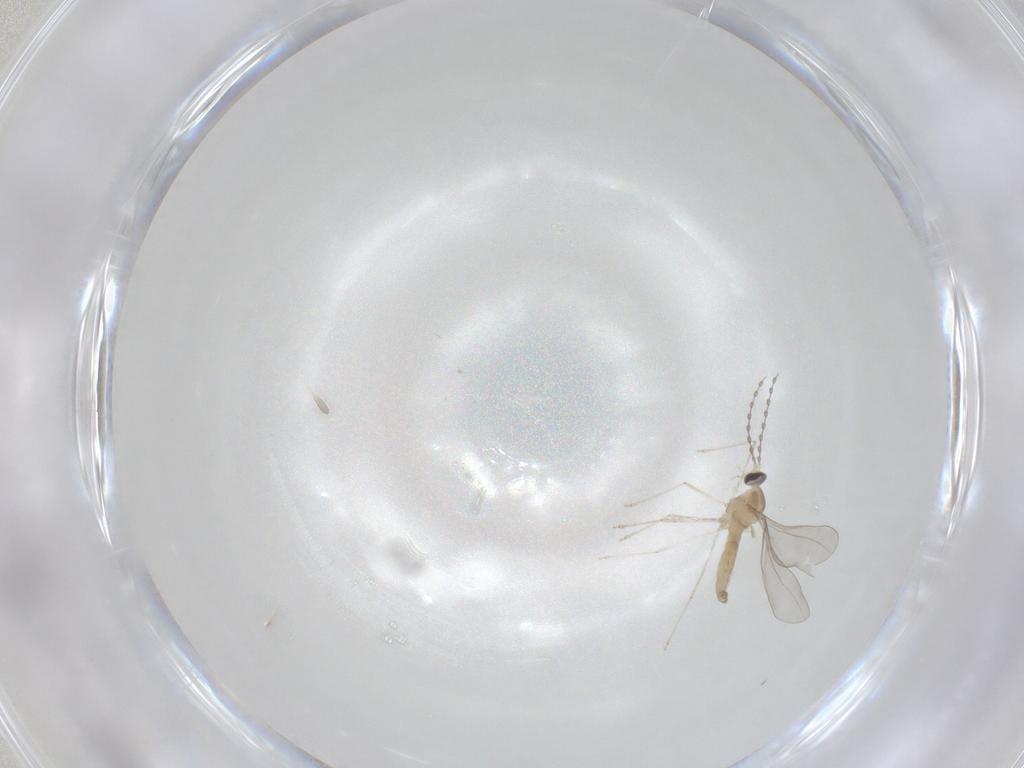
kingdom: Animalia
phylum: Arthropoda
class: Insecta
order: Diptera
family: Cecidomyiidae
